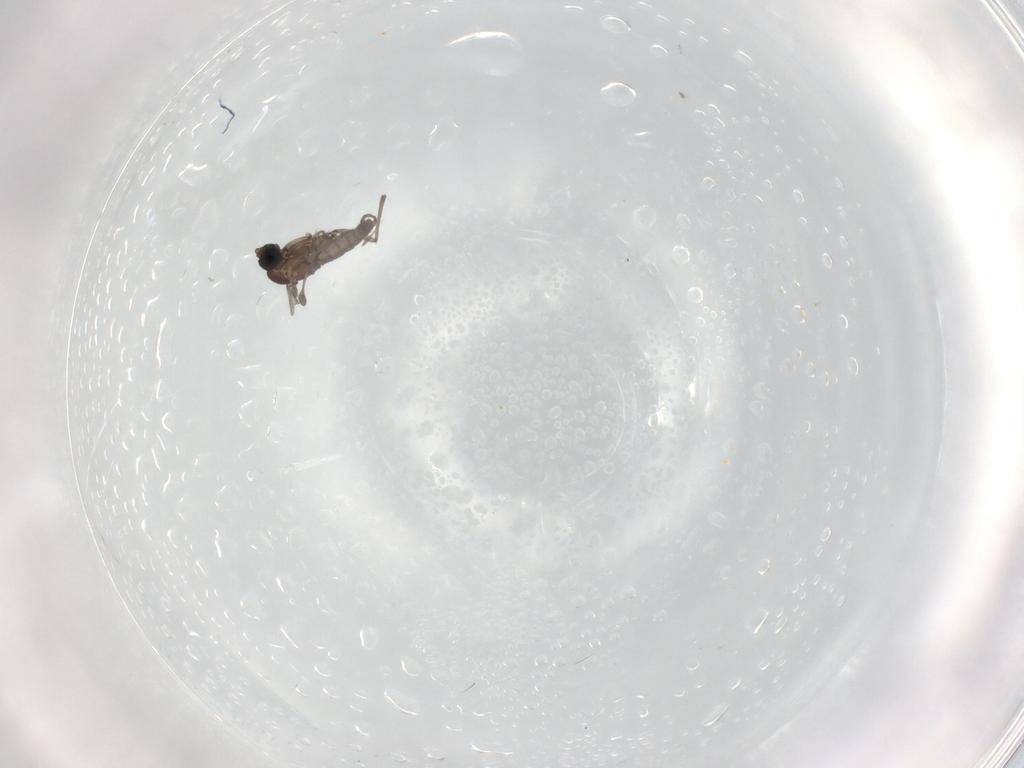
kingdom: Animalia
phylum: Arthropoda
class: Insecta
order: Diptera
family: Sciaridae
